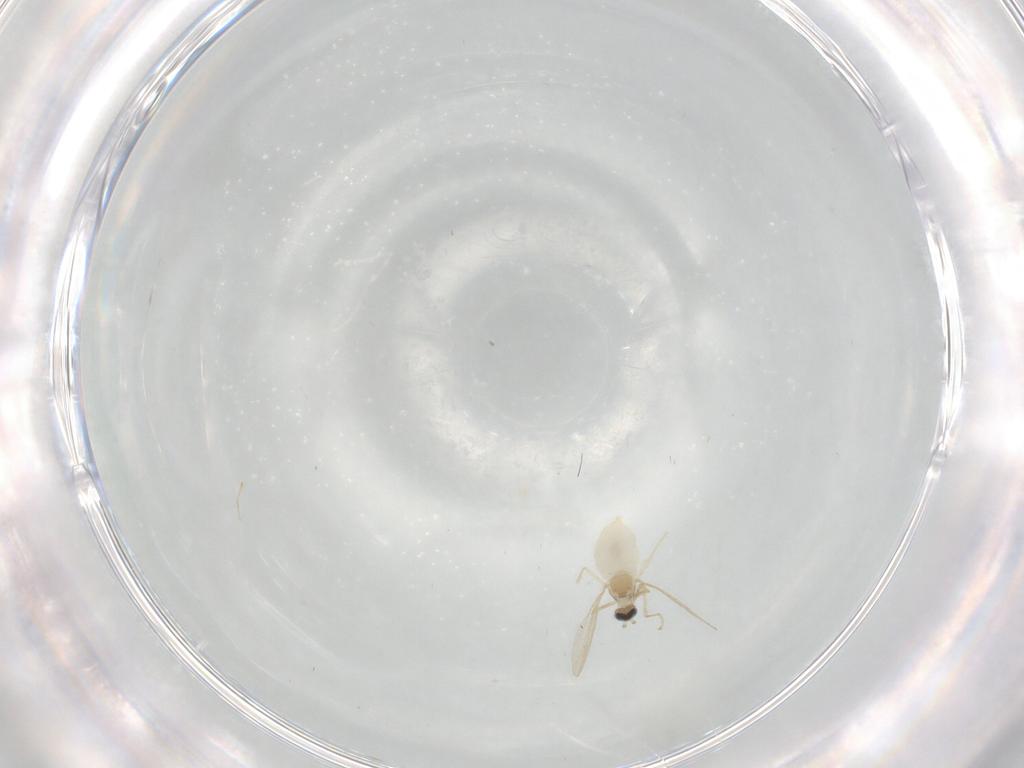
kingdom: Animalia
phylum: Arthropoda
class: Insecta
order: Diptera
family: Cecidomyiidae
